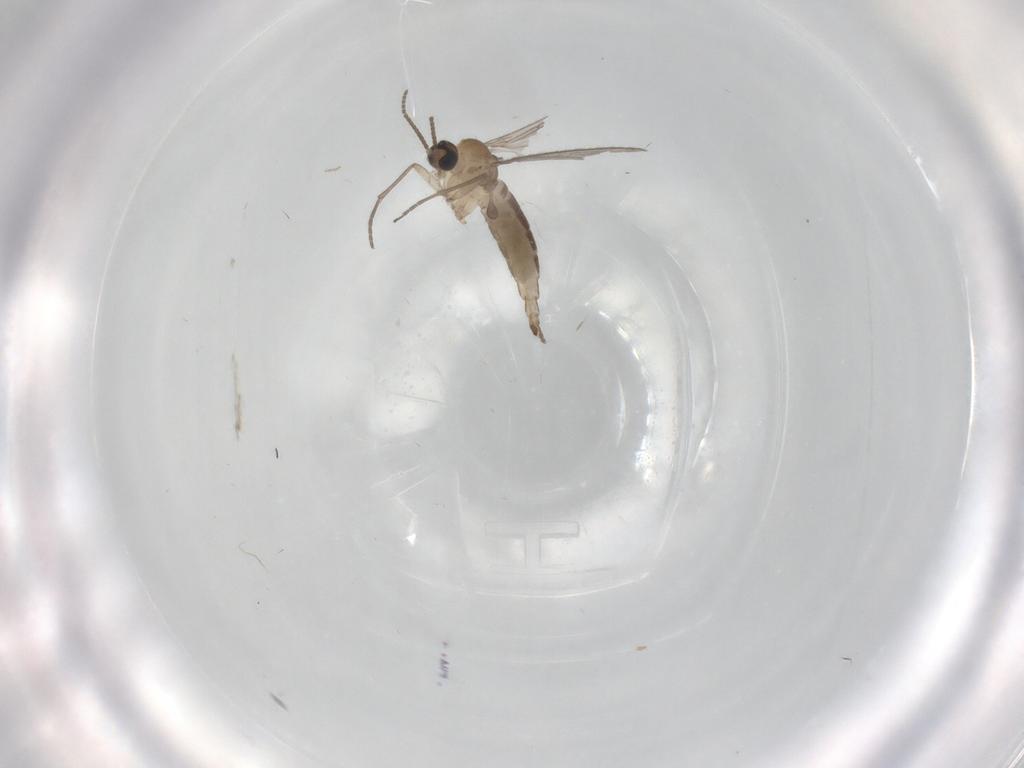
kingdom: Animalia
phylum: Arthropoda
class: Insecta
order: Diptera
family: Sciaridae
